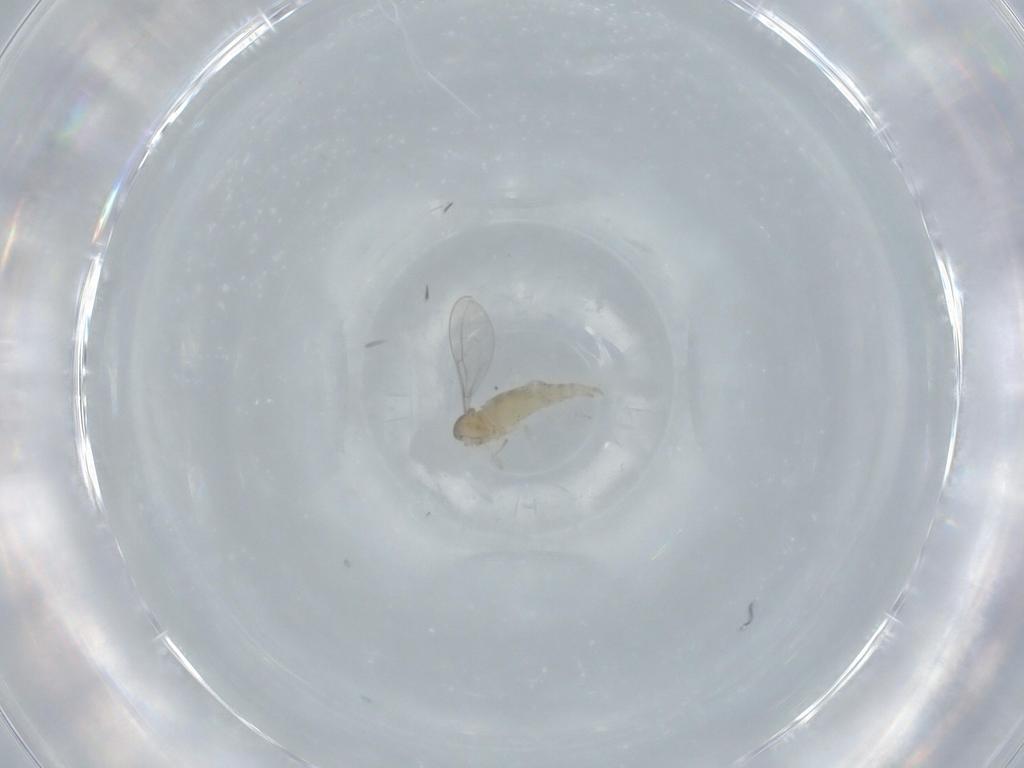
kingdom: Animalia
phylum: Arthropoda
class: Insecta
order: Diptera
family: Cecidomyiidae
